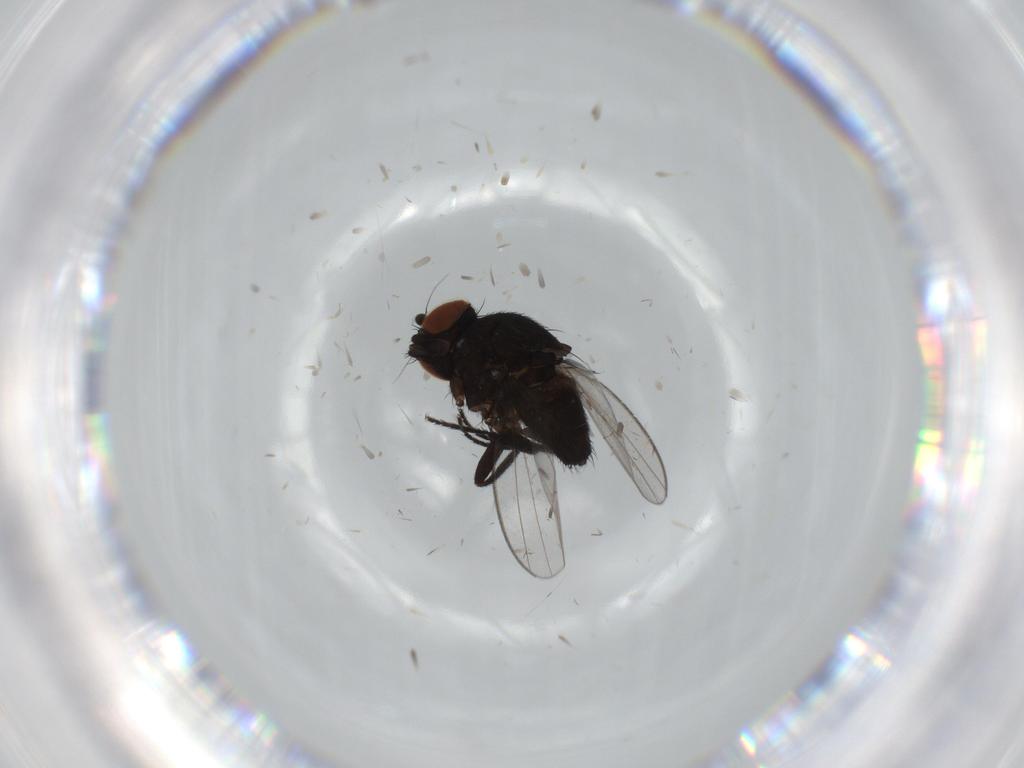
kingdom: Animalia
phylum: Arthropoda
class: Insecta
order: Diptera
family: Milichiidae
